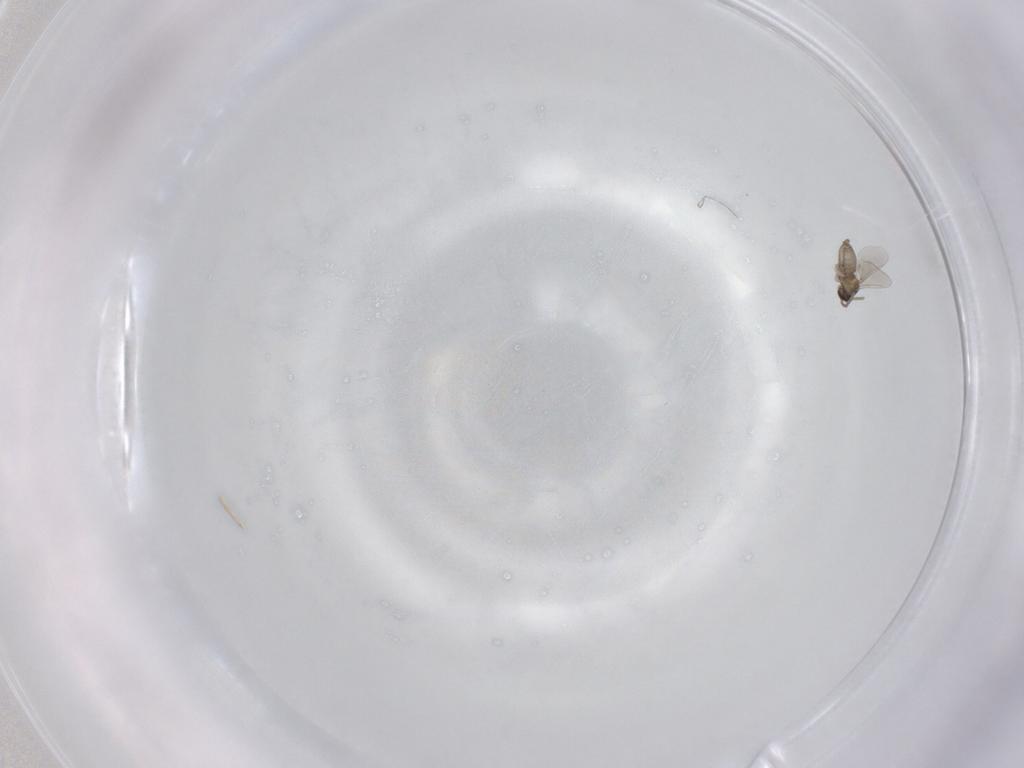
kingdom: Animalia
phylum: Arthropoda
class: Insecta
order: Diptera
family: Cecidomyiidae
